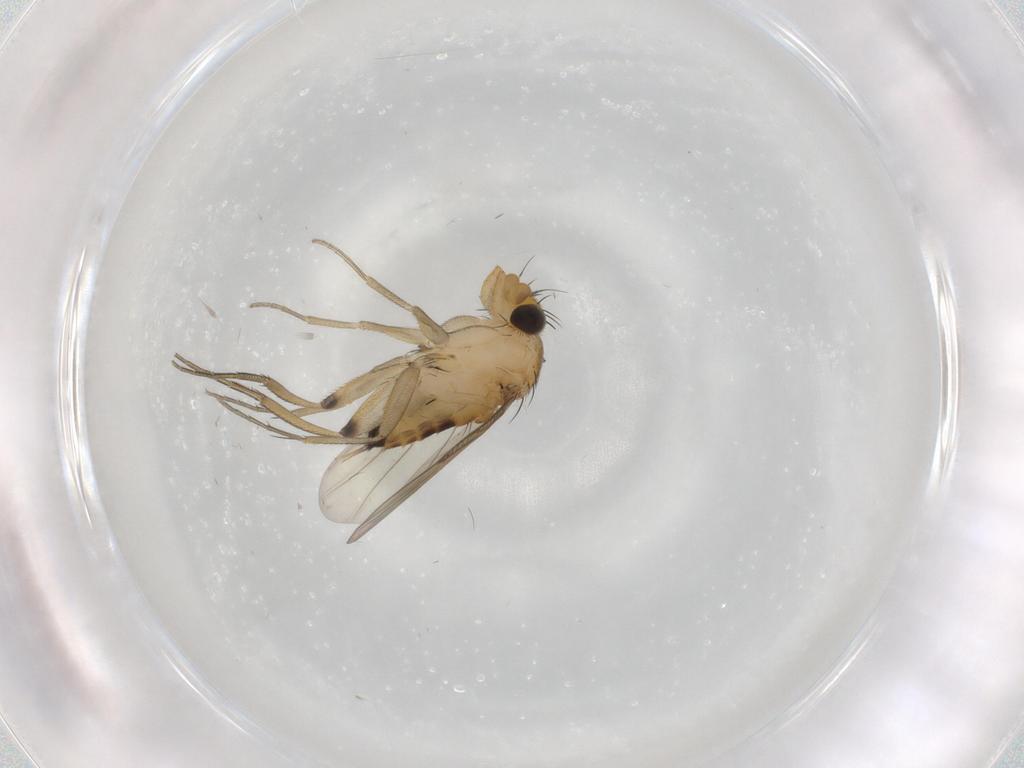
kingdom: Animalia
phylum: Arthropoda
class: Insecta
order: Diptera
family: Phoridae
